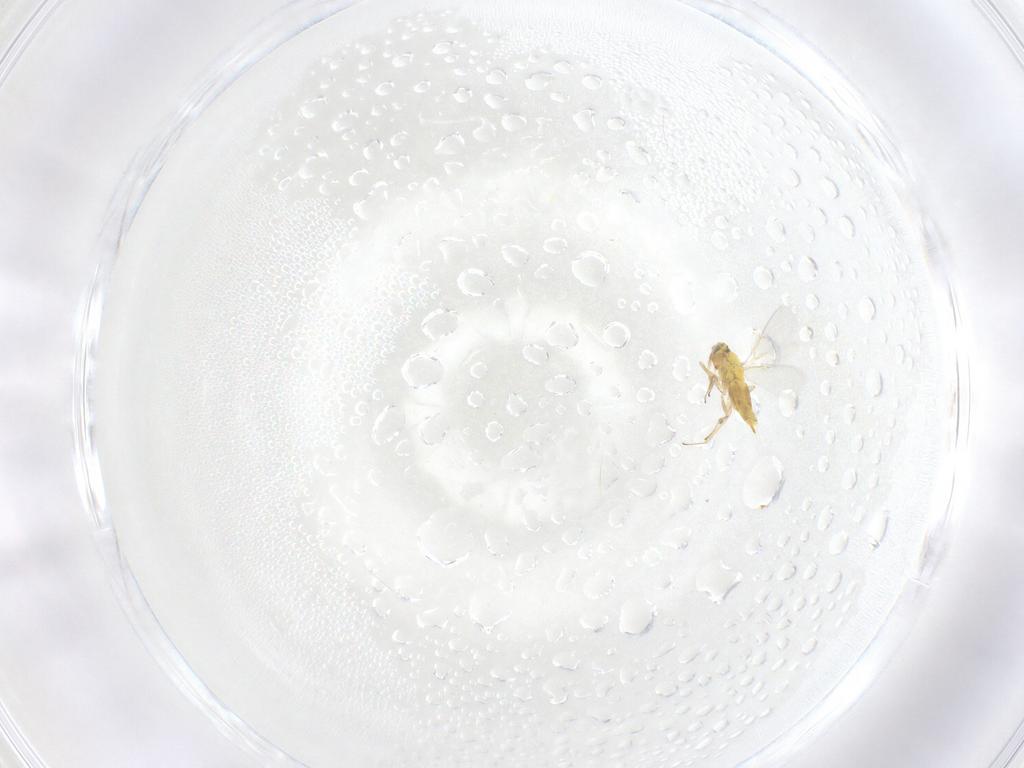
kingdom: Animalia
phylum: Arthropoda
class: Insecta
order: Hymenoptera
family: Aphelinidae
